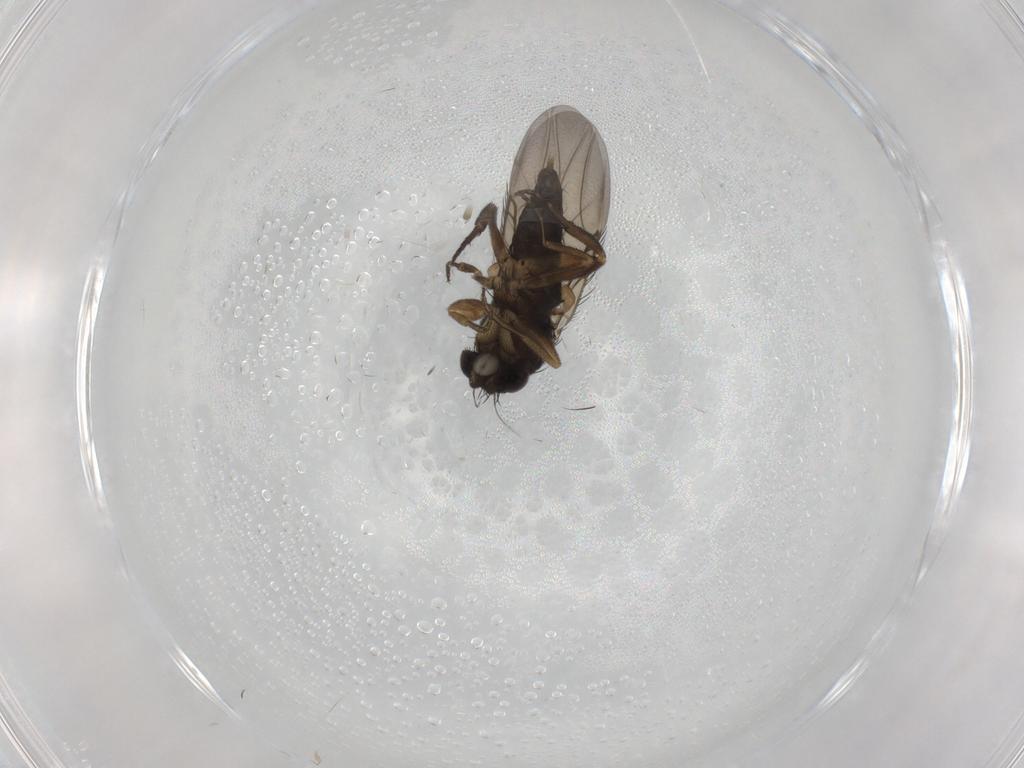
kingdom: Animalia
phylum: Arthropoda
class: Insecta
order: Diptera
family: Phoridae
